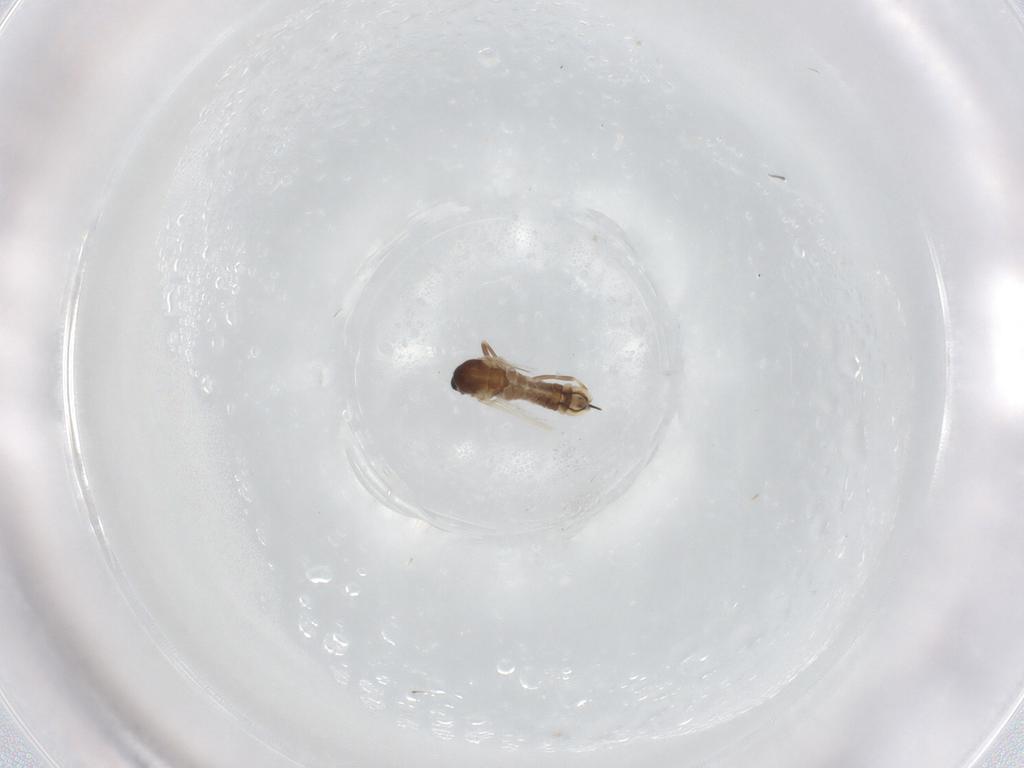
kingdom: Animalia
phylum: Arthropoda
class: Insecta
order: Diptera
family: Cecidomyiidae
